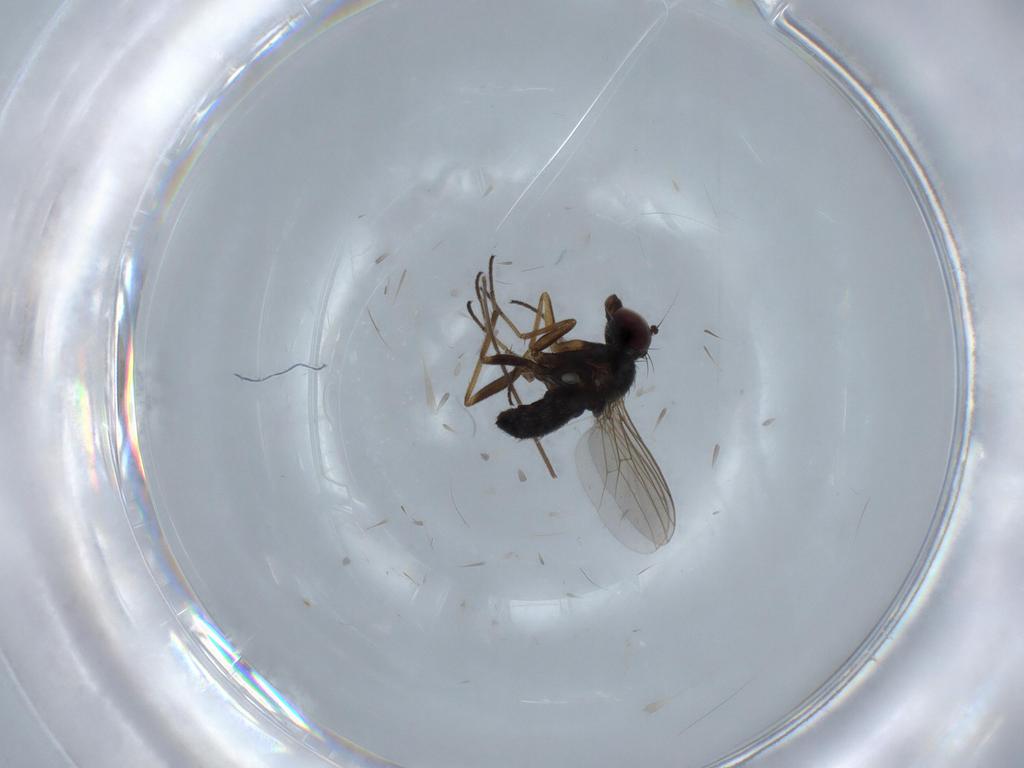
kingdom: Animalia
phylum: Arthropoda
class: Insecta
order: Diptera
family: Dolichopodidae
